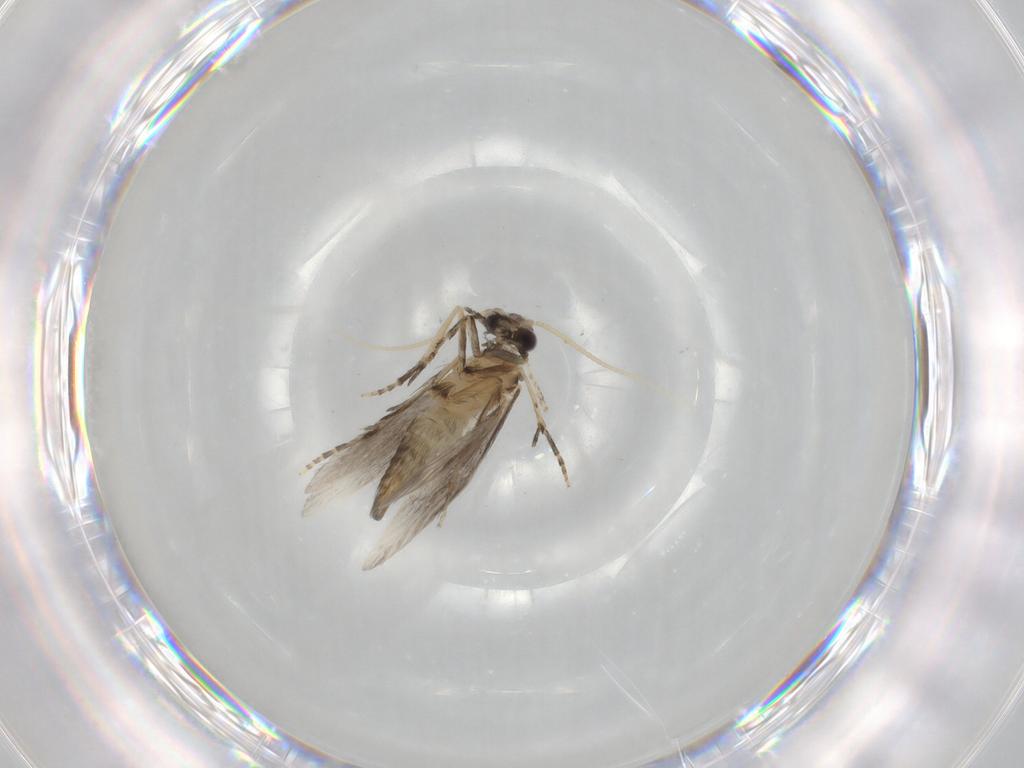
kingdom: Animalia
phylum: Arthropoda
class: Insecta
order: Trichoptera
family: Hydroptilidae
